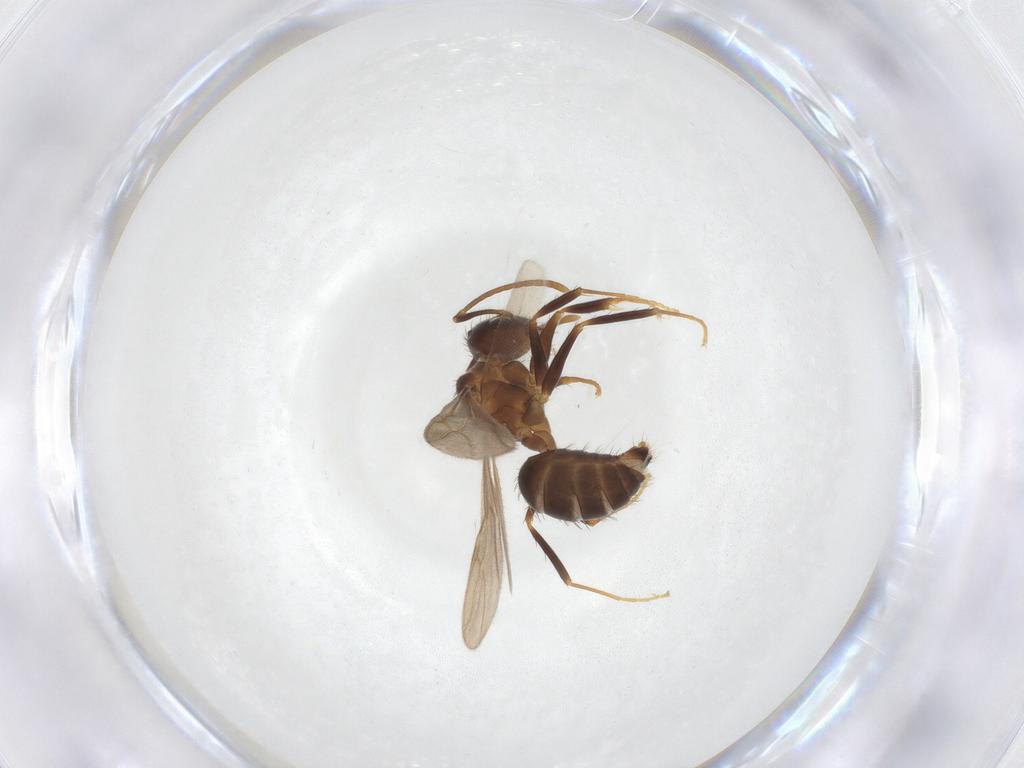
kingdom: Animalia
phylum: Arthropoda
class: Insecta
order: Hymenoptera
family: Formicidae
